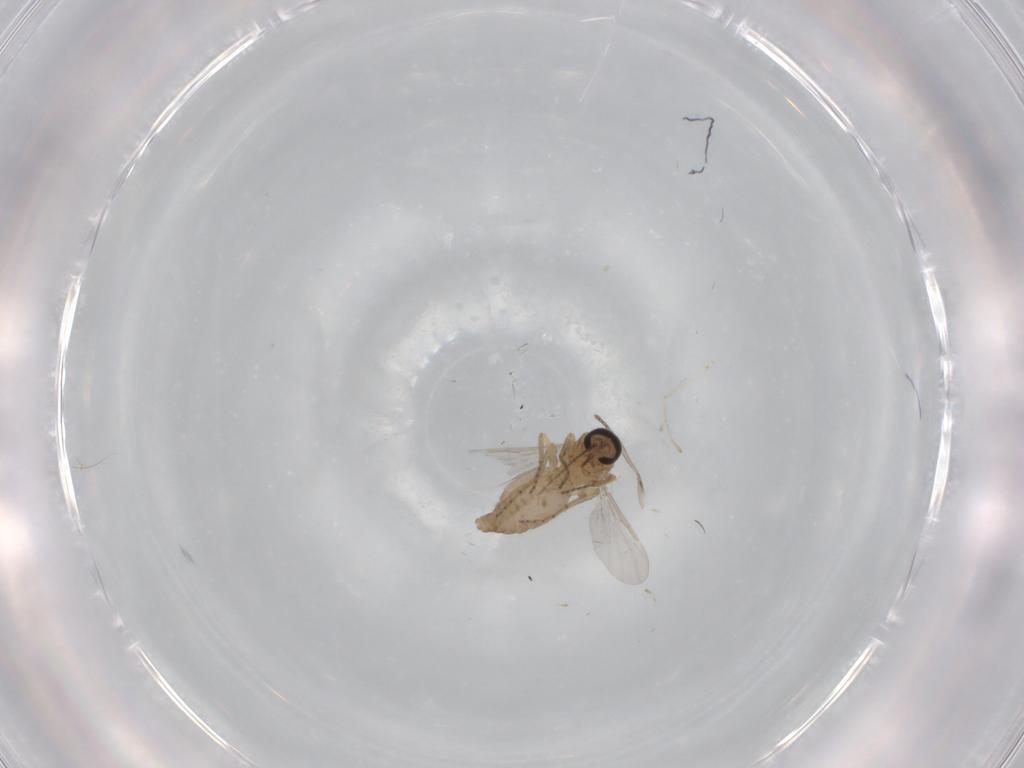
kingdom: Animalia
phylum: Arthropoda
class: Insecta
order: Diptera
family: Ceratopogonidae
